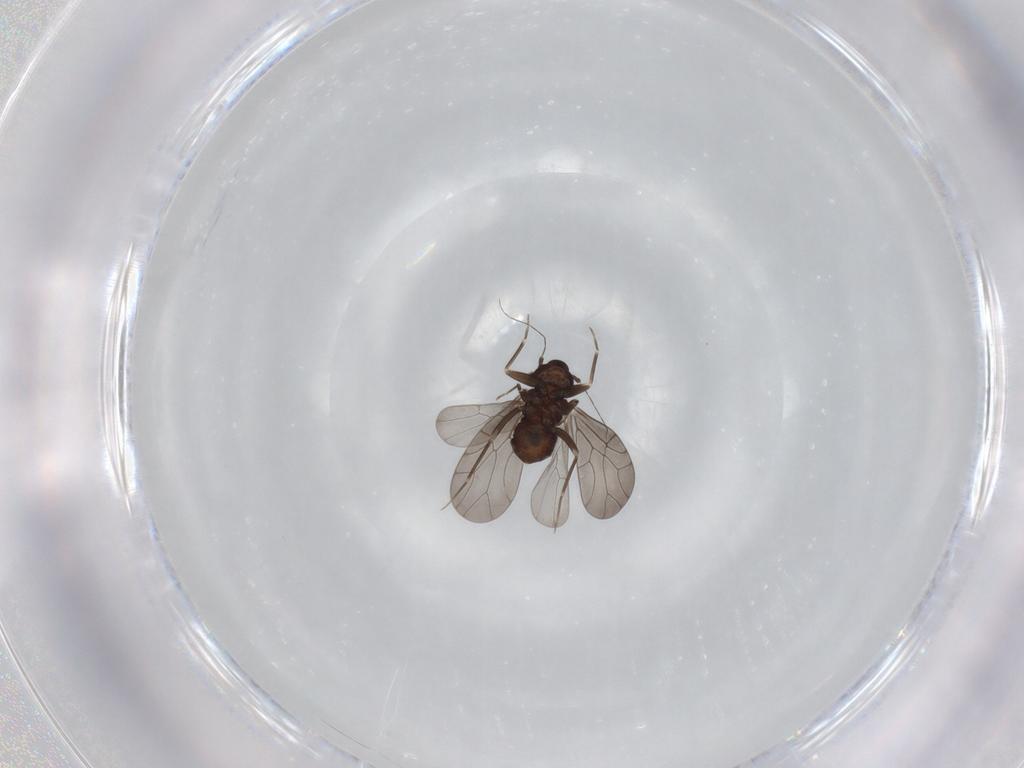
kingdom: Animalia
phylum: Arthropoda
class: Insecta
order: Psocodea
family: Lepidopsocidae
